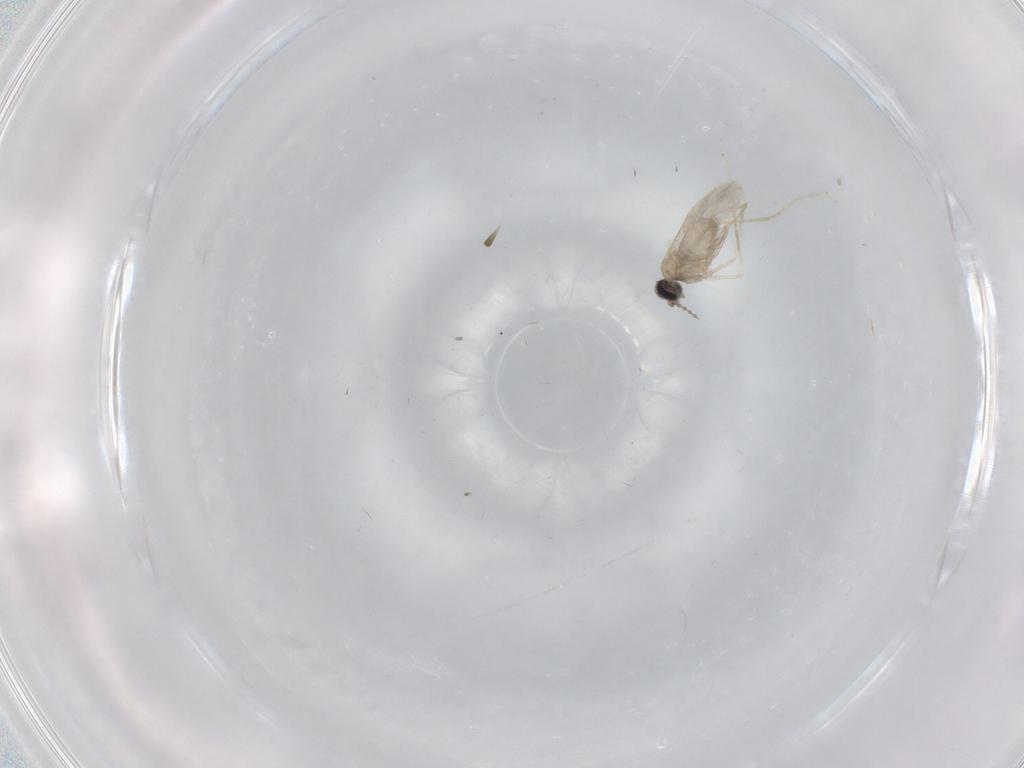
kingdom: Animalia
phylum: Arthropoda
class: Insecta
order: Diptera
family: Cecidomyiidae
